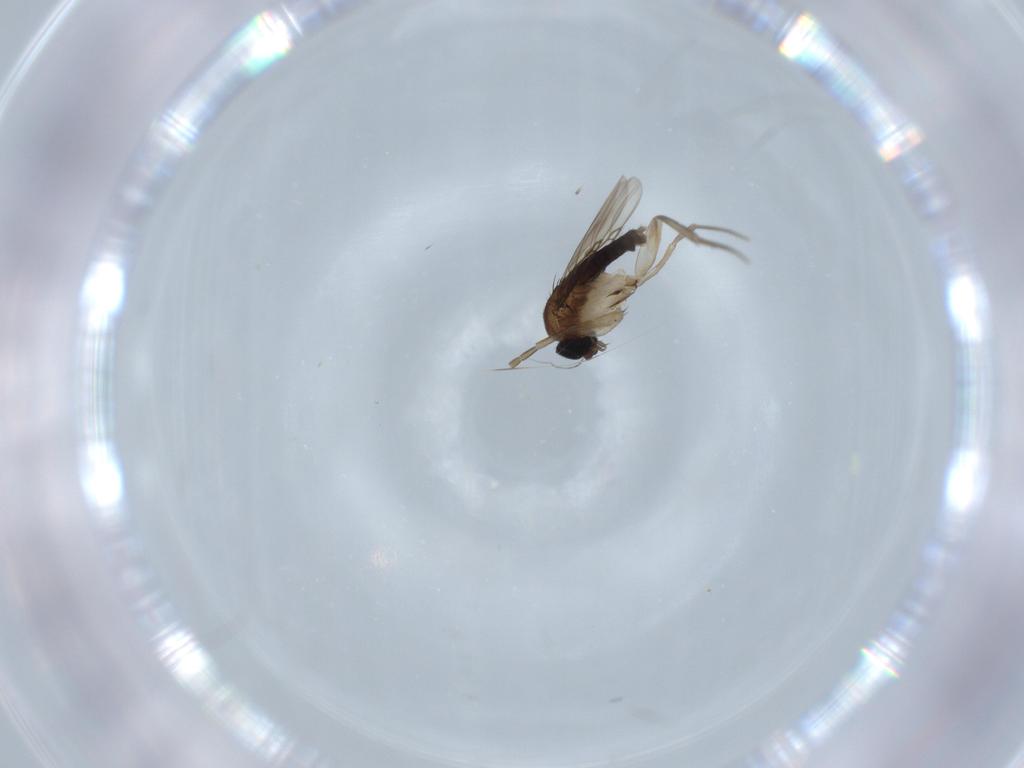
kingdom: Animalia
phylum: Arthropoda
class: Insecta
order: Diptera
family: Phoridae
